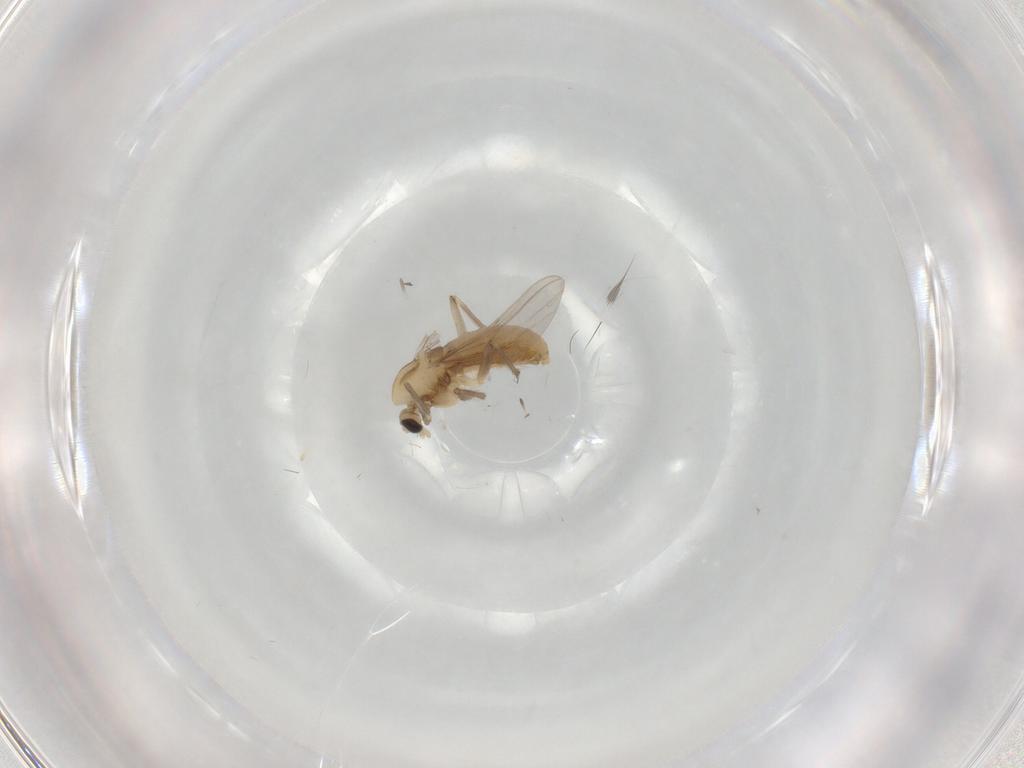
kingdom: Animalia
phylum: Arthropoda
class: Insecta
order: Diptera
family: Chironomidae
